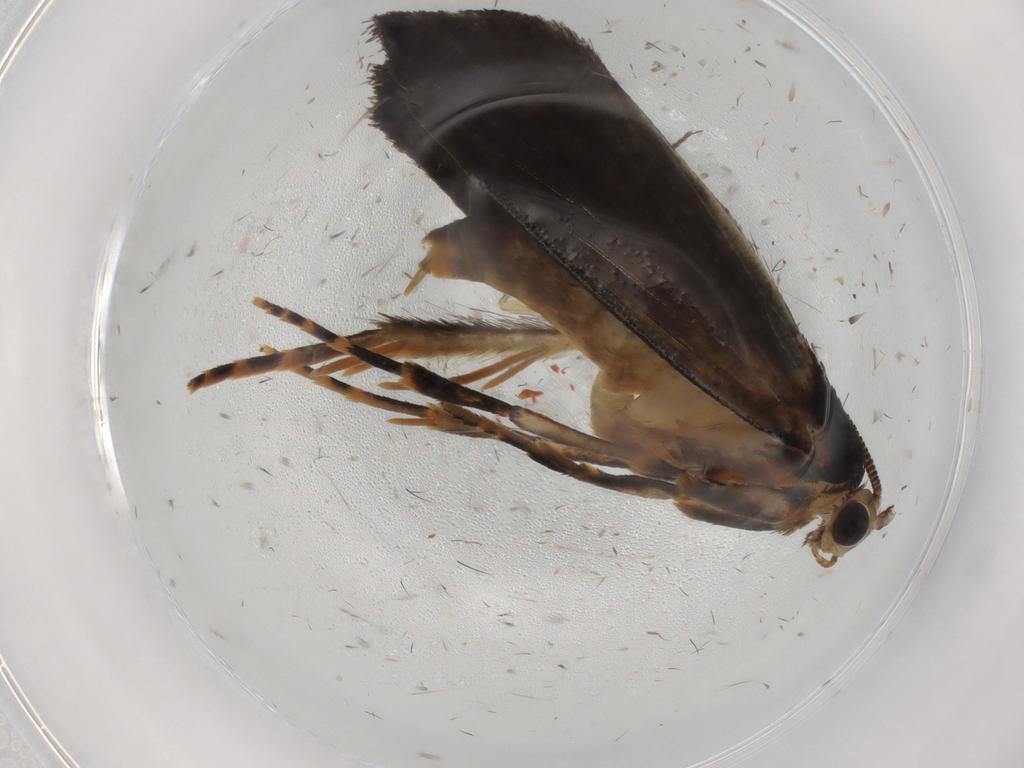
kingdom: Animalia
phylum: Arthropoda
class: Insecta
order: Lepidoptera
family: Tineidae
